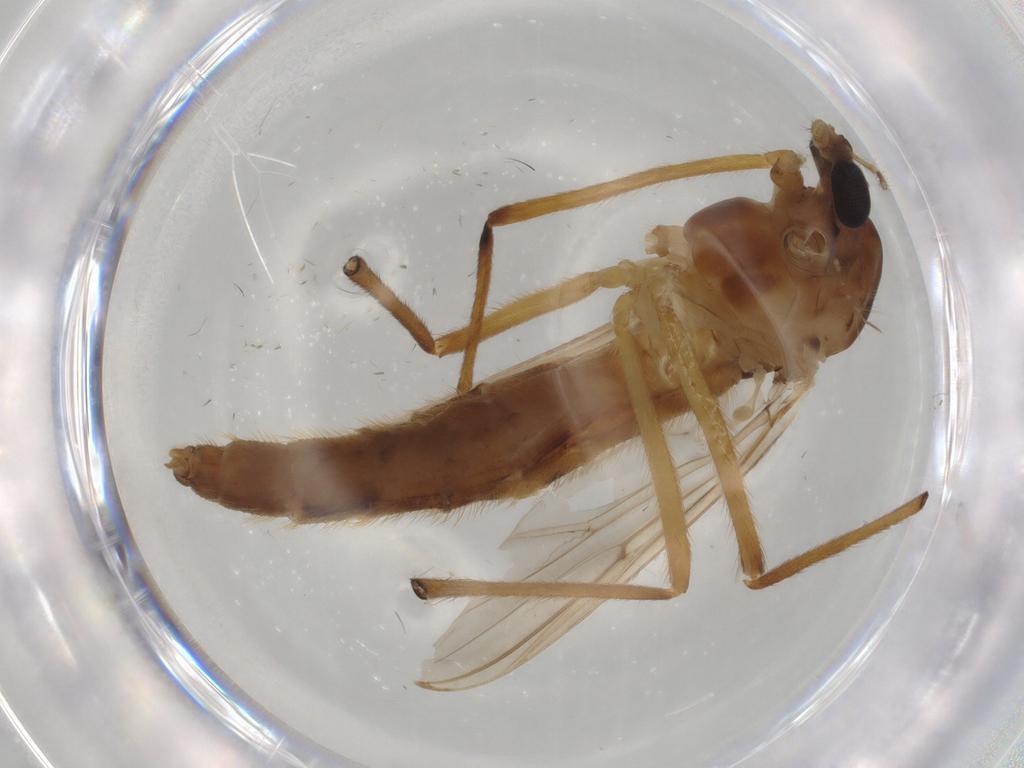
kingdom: Animalia
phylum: Arthropoda
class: Insecta
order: Diptera
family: Chironomidae
